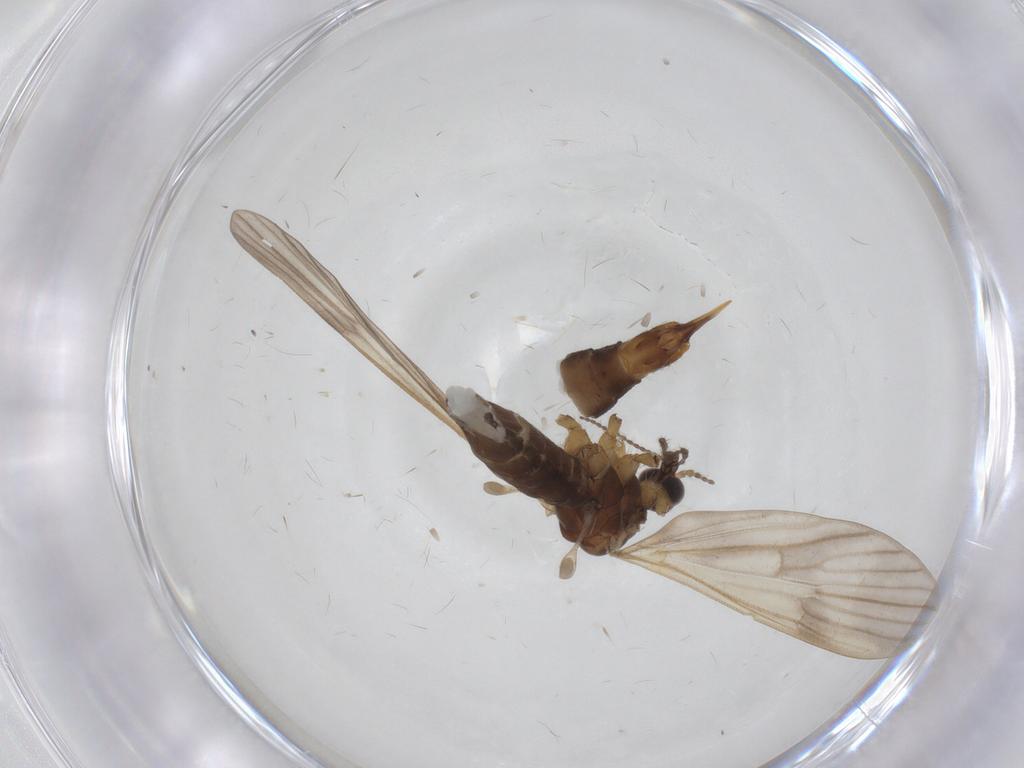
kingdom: Animalia
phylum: Arthropoda
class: Insecta
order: Diptera
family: Limoniidae
